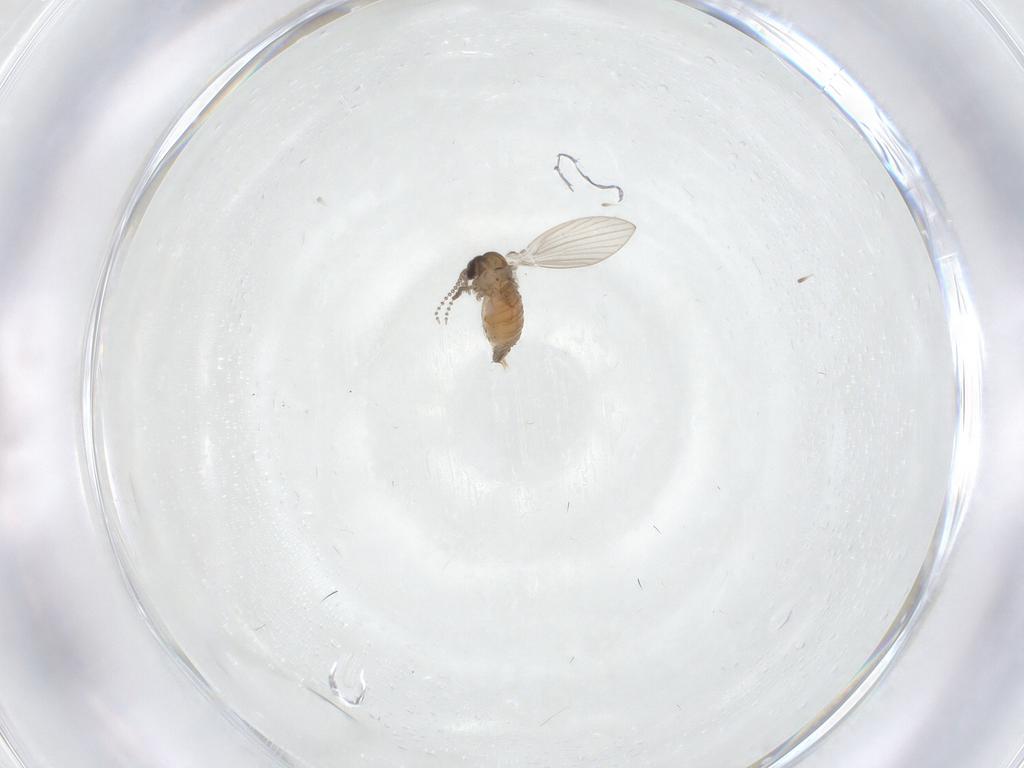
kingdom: Animalia
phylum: Arthropoda
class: Insecta
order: Diptera
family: Psychodidae
